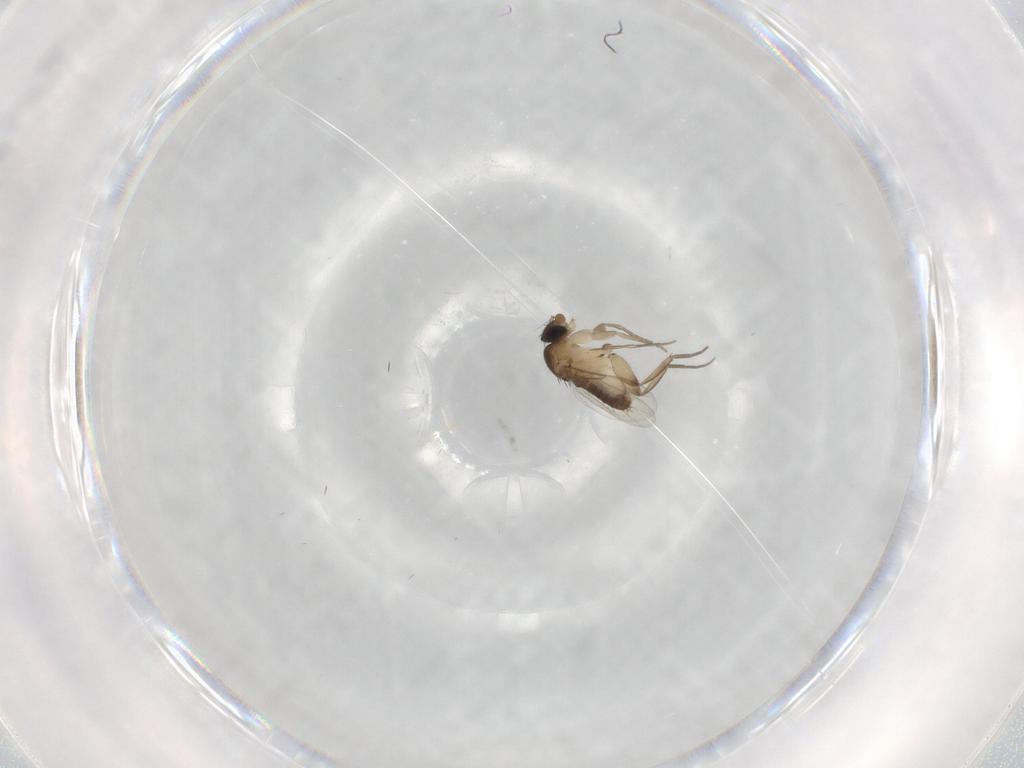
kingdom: Animalia
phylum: Arthropoda
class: Insecta
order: Diptera
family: Phoridae
